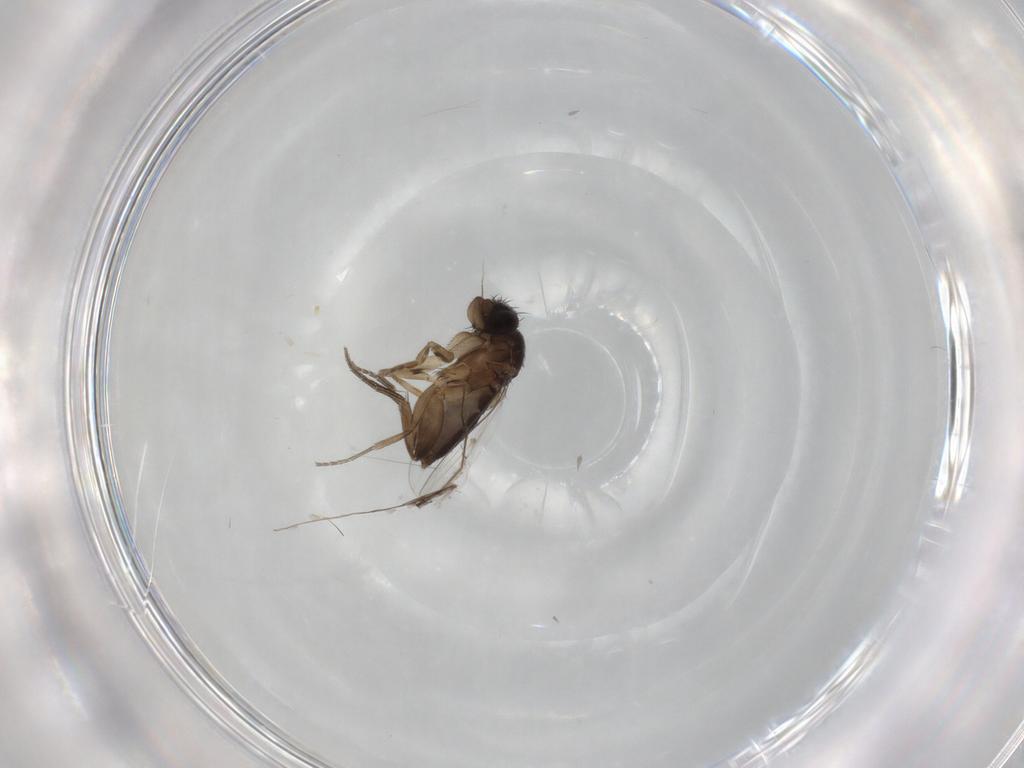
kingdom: Animalia
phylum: Arthropoda
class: Insecta
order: Diptera
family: Phoridae
